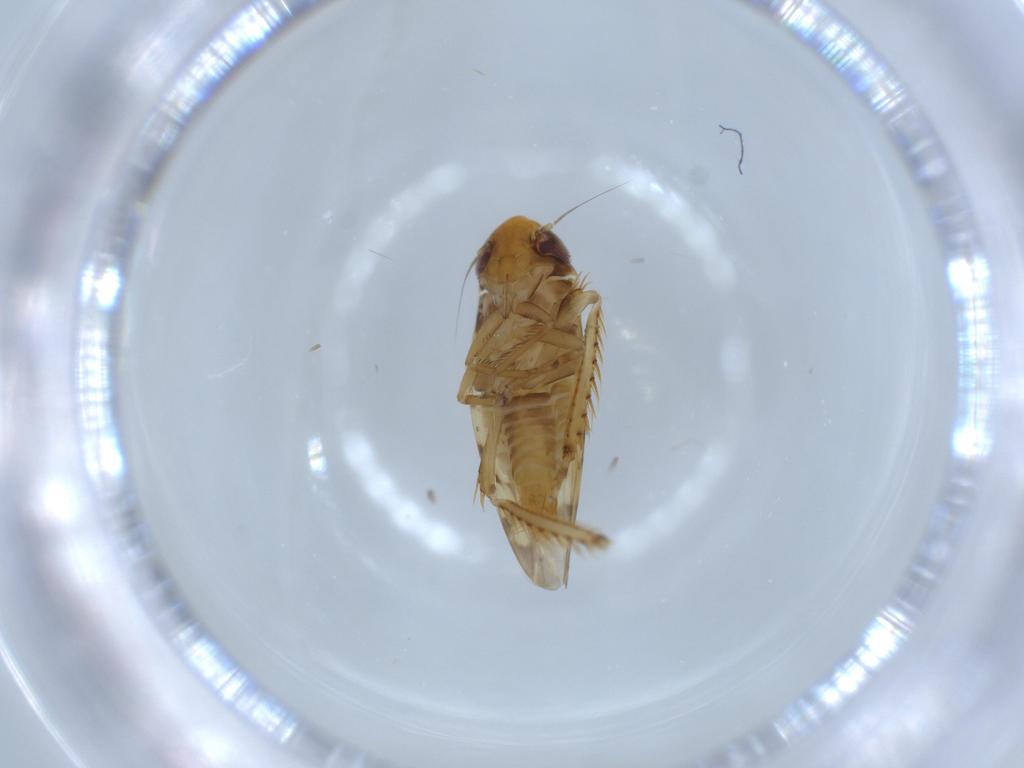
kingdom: Animalia
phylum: Arthropoda
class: Insecta
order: Hemiptera
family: Cicadellidae
